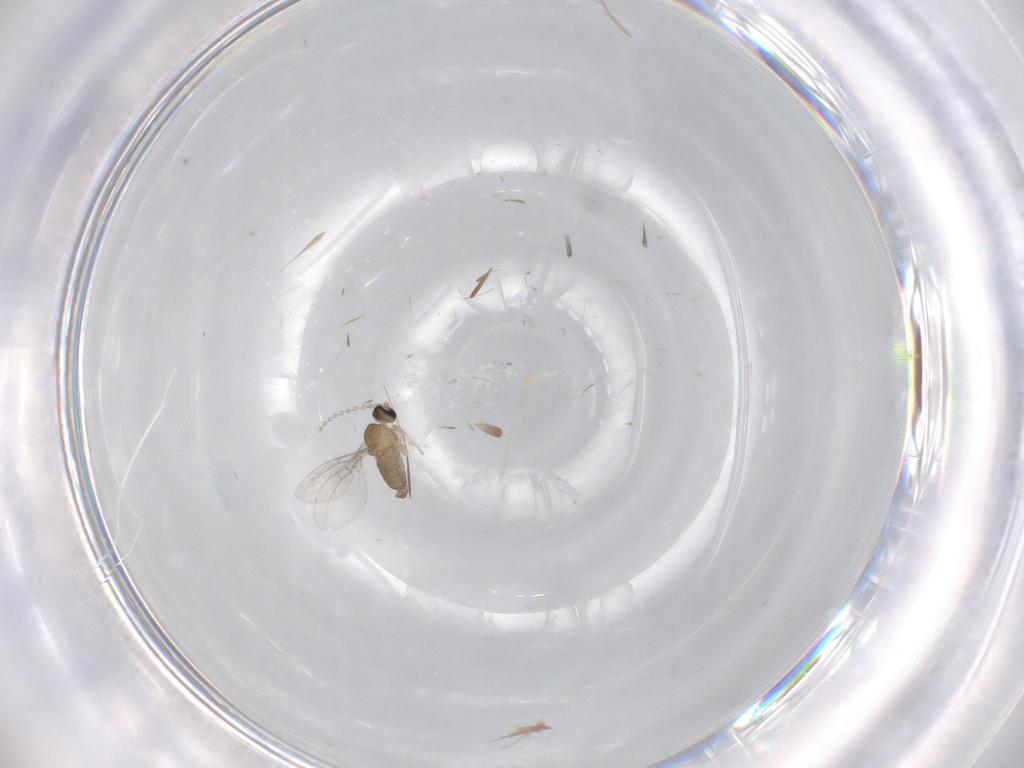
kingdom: Animalia
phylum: Arthropoda
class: Insecta
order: Diptera
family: Cecidomyiidae
